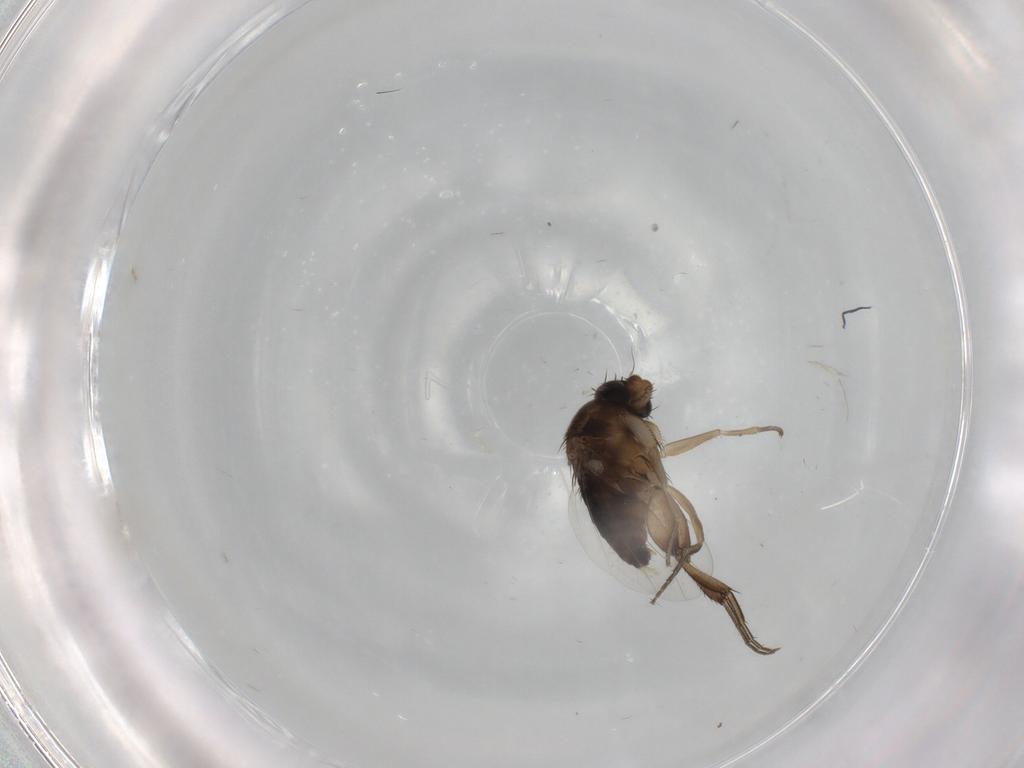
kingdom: Animalia
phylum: Arthropoda
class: Insecta
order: Diptera
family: Phoridae
